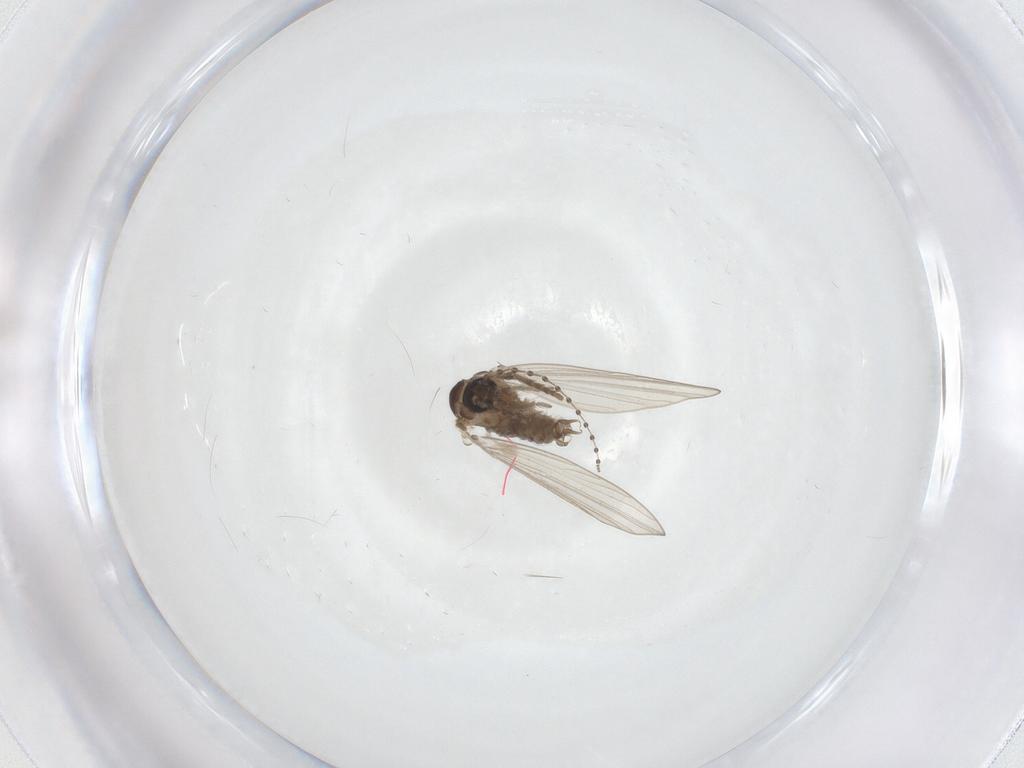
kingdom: Animalia
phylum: Arthropoda
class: Insecta
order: Diptera
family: Psychodidae
